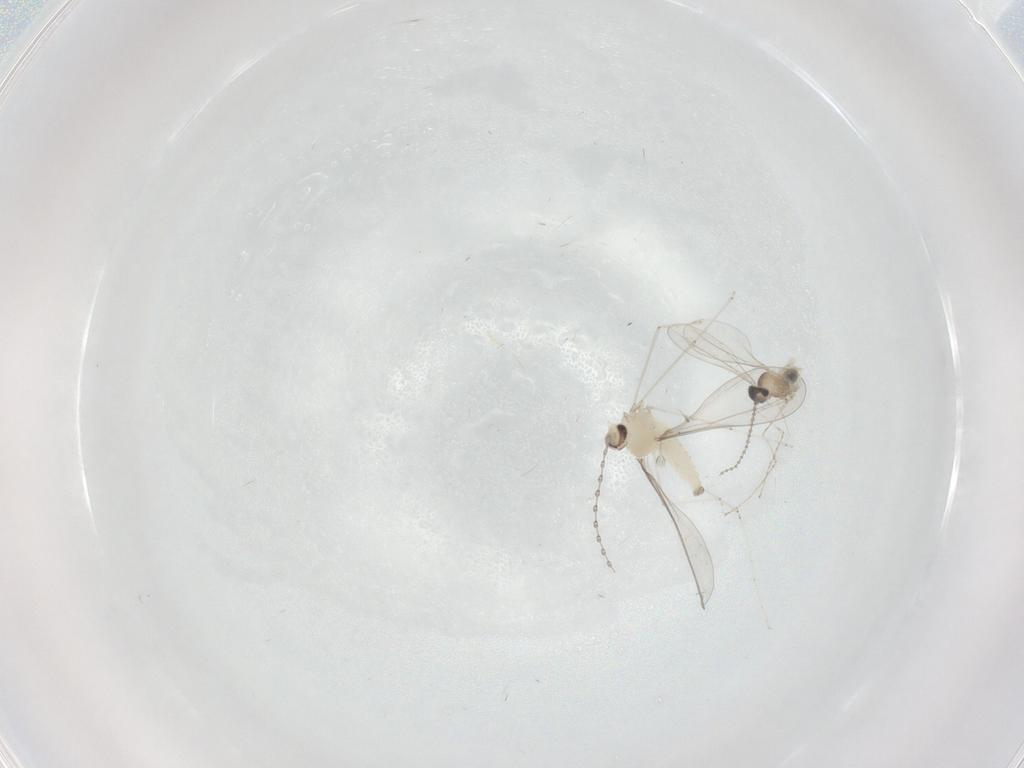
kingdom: Animalia
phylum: Arthropoda
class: Insecta
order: Diptera
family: Cecidomyiidae
